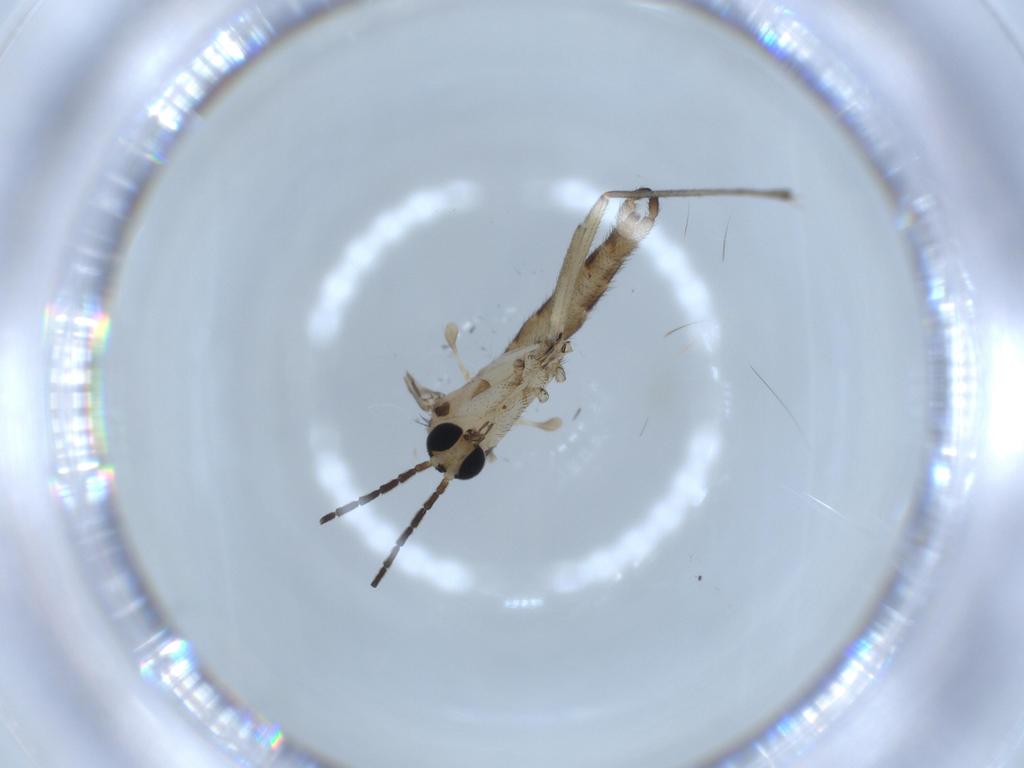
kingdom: Animalia
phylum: Arthropoda
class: Insecta
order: Diptera
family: Sciaridae
